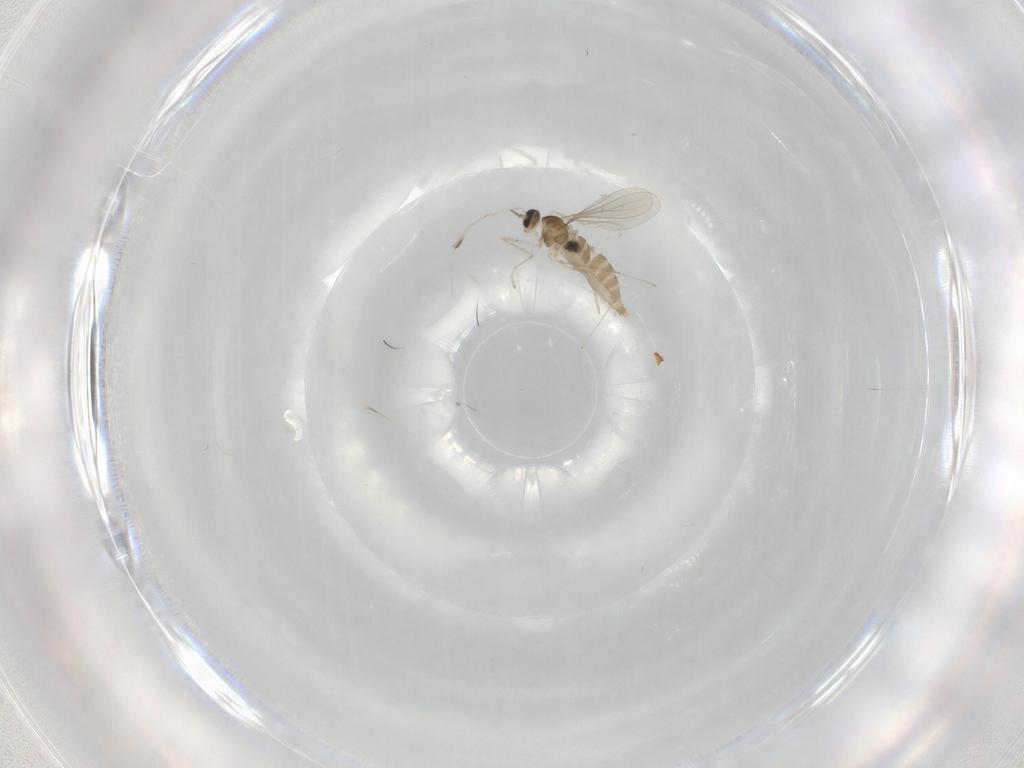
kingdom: Animalia
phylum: Arthropoda
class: Insecta
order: Diptera
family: Sciaridae
